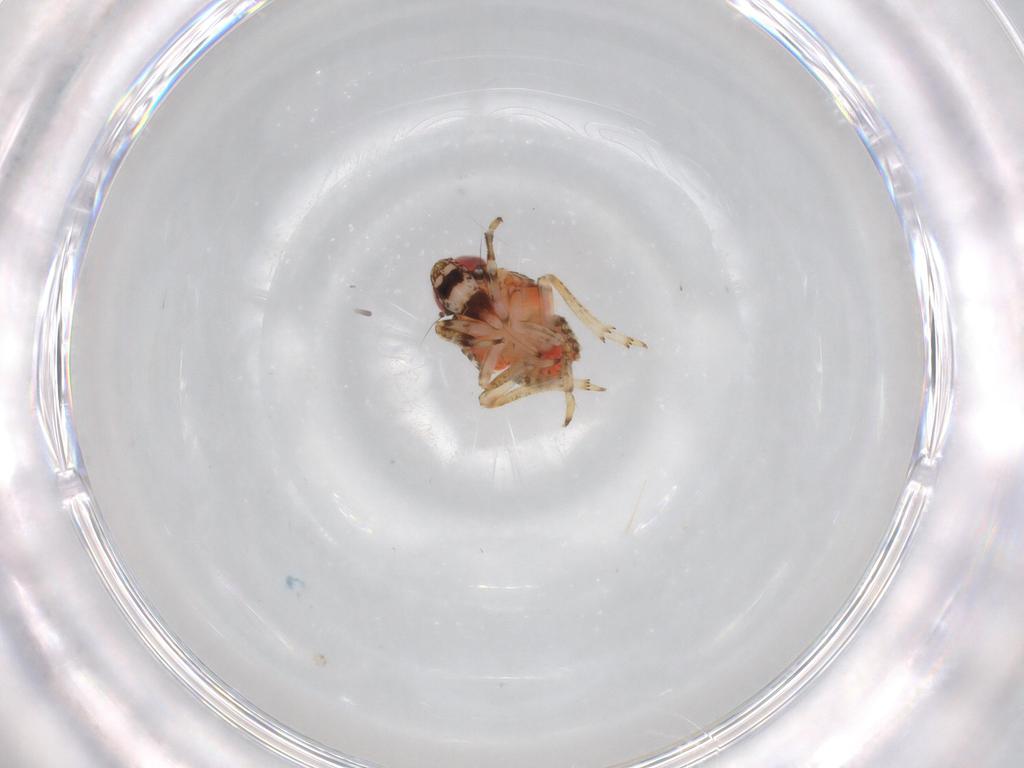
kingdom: Animalia
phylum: Arthropoda
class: Insecta
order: Hemiptera
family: Issidae
